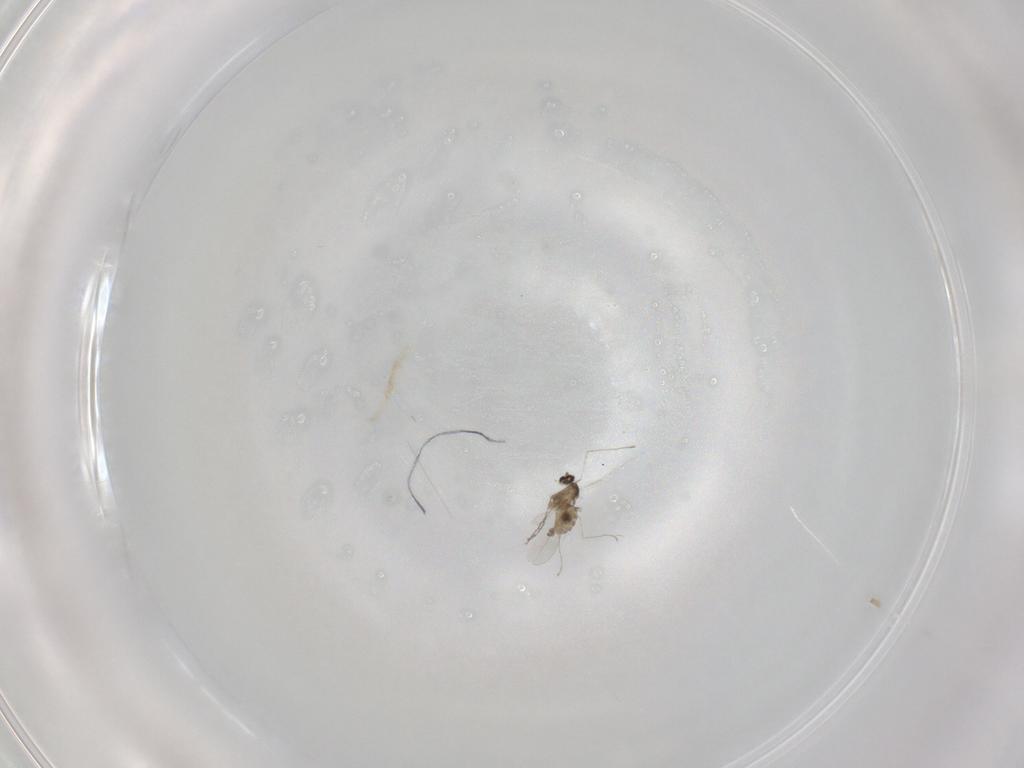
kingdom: Animalia
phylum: Arthropoda
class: Insecta
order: Diptera
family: Cecidomyiidae
